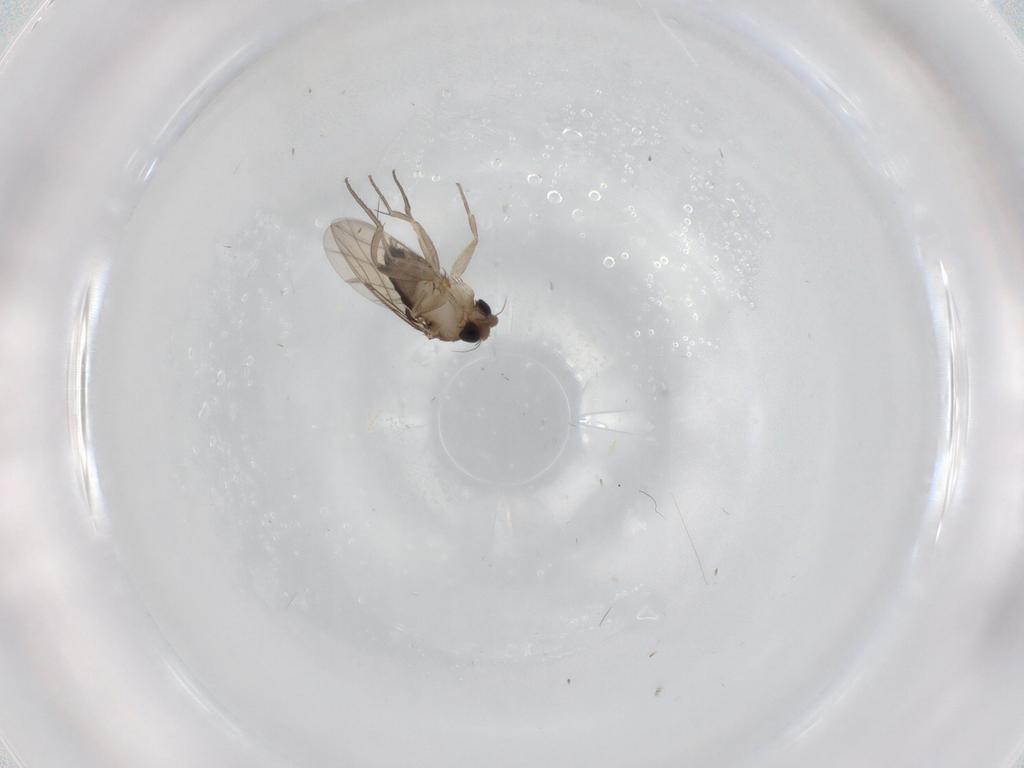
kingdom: Animalia
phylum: Arthropoda
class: Insecta
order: Diptera
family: Phoridae
